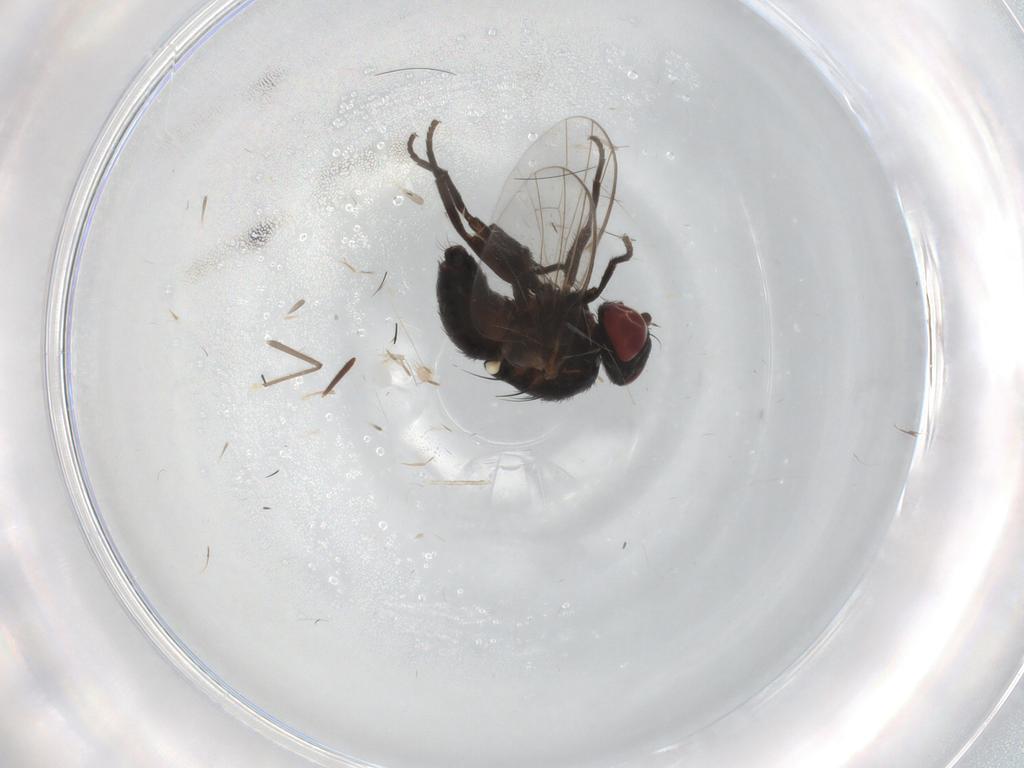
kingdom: Animalia
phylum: Arthropoda
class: Insecta
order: Diptera
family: Agromyzidae
